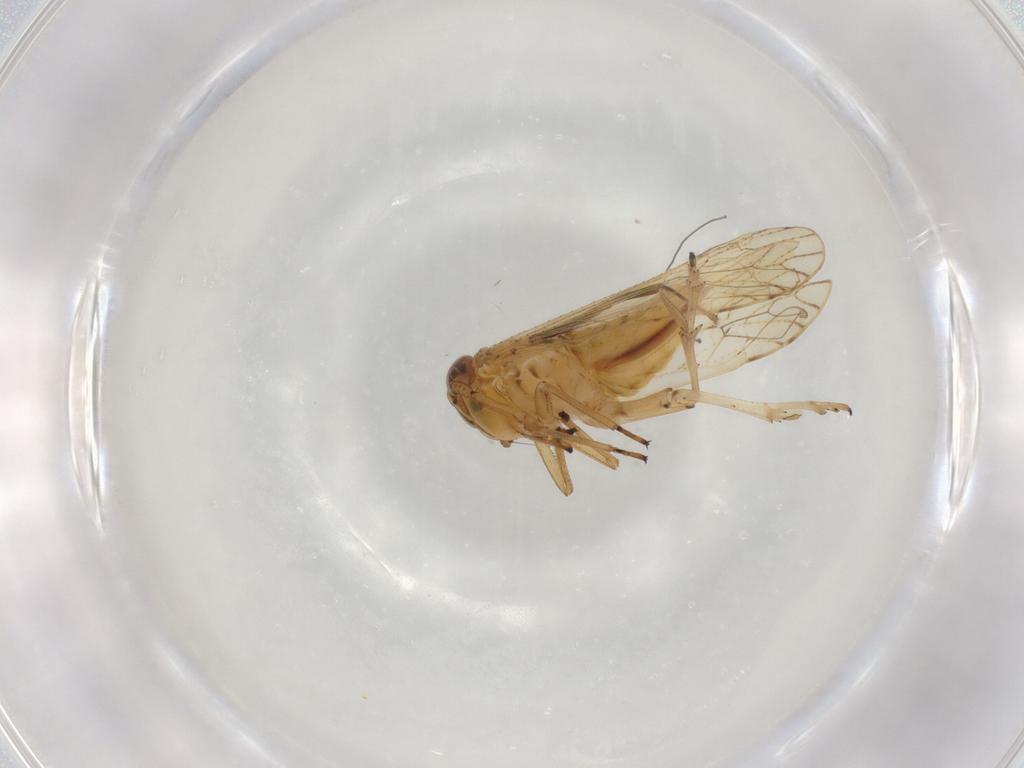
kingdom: Animalia
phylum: Arthropoda
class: Insecta
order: Hemiptera
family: Delphacidae
